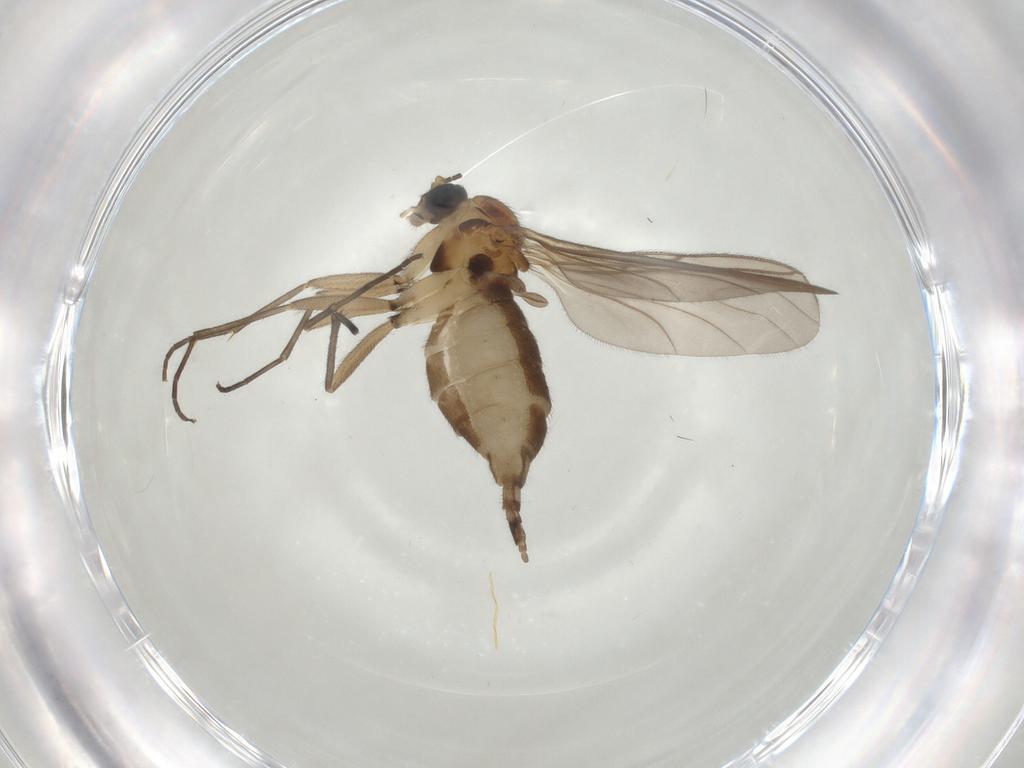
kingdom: Animalia
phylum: Arthropoda
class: Insecta
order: Diptera
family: Sciaridae
